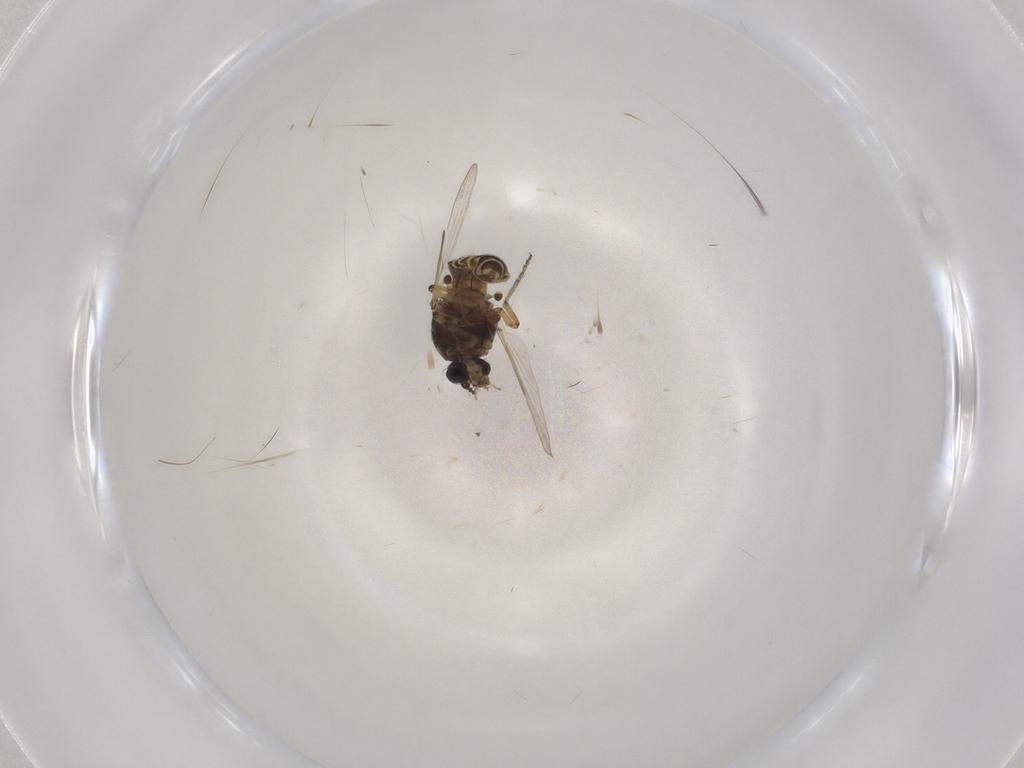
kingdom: Animalia
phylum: Arthropoda
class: Insecta
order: Diptera
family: Ceratopogonidae
